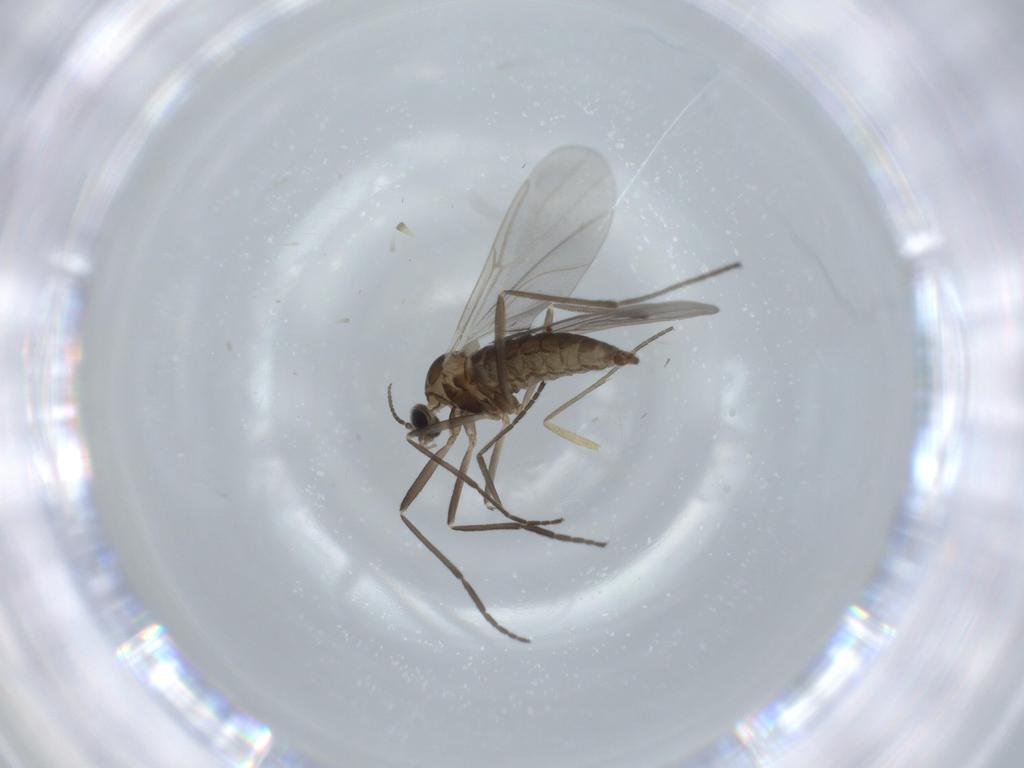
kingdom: Animalia
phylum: Arthropoda
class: Insecta
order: Diptera
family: Cecidomyiidae
